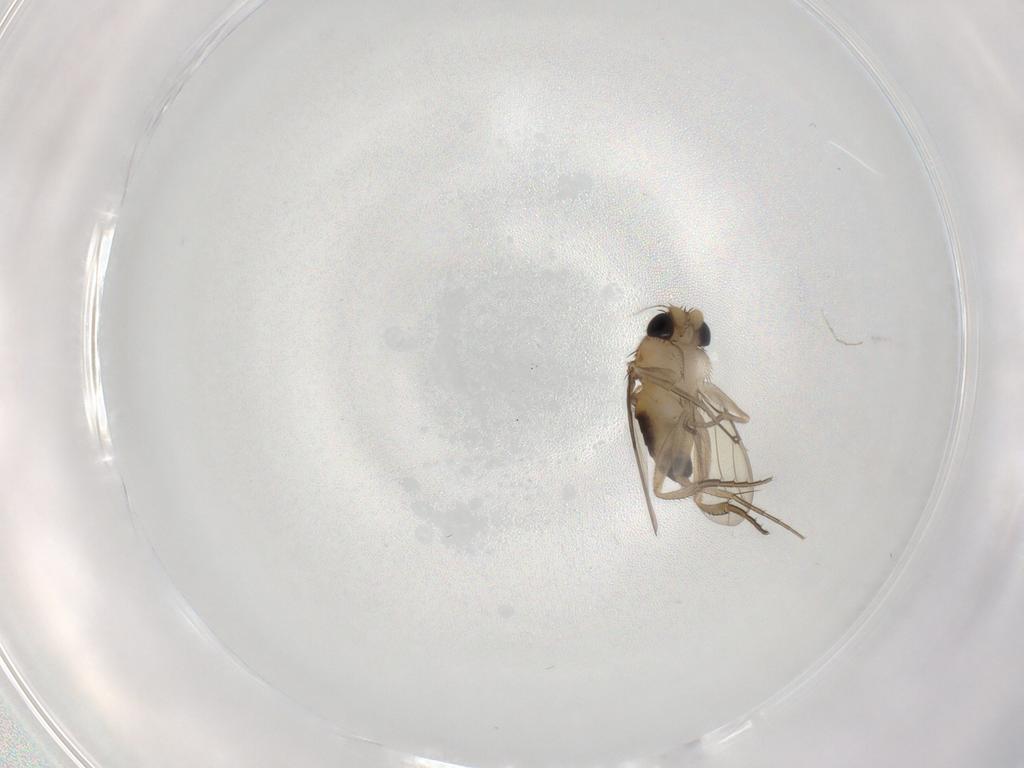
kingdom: Animalia
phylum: Arthropoda
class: Insecta
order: Diptera
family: Phoridae
